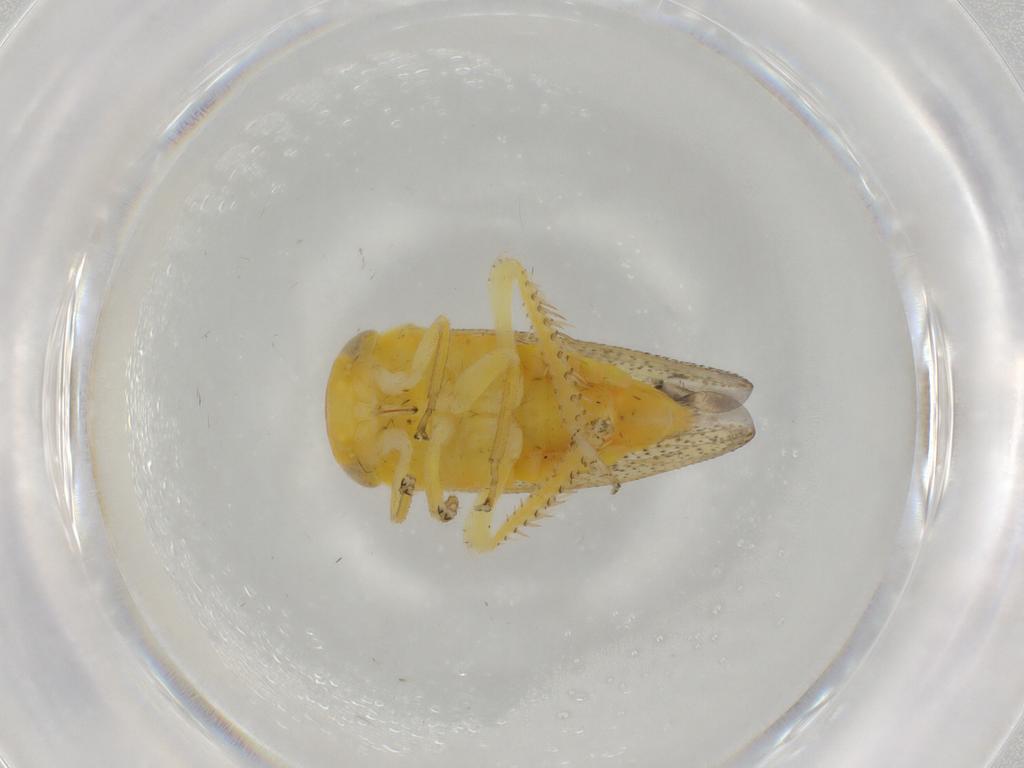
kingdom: Animalia
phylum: Arthropoda
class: Insecta
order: Hemiptera
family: Cicadellidae
